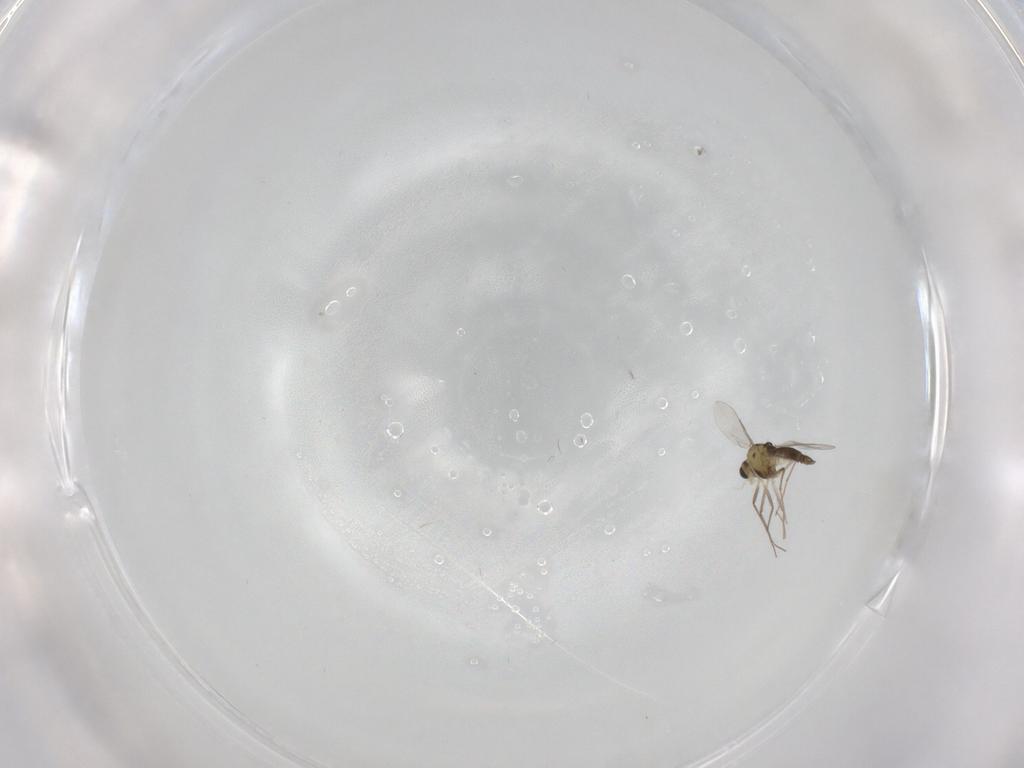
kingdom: Animalia
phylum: Arthropoda
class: Insecta
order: Diptera
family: Chironomidae
